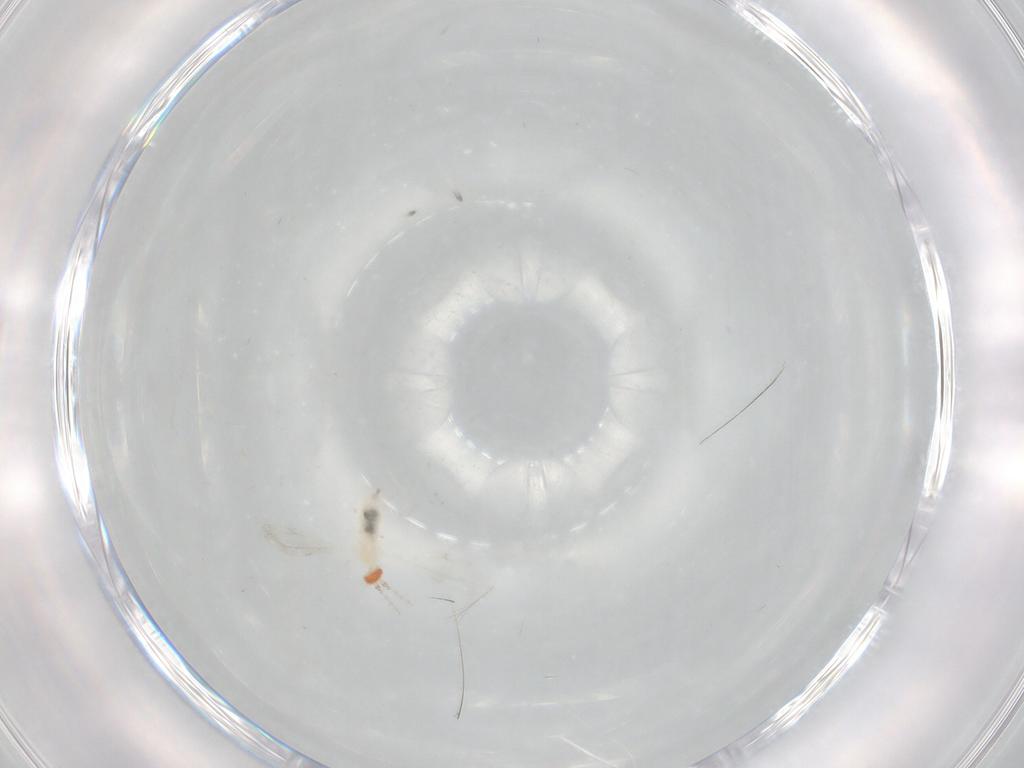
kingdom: Animalia
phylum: Arthropoda
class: Insecta
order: Diptera
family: Cecidomyiidae
